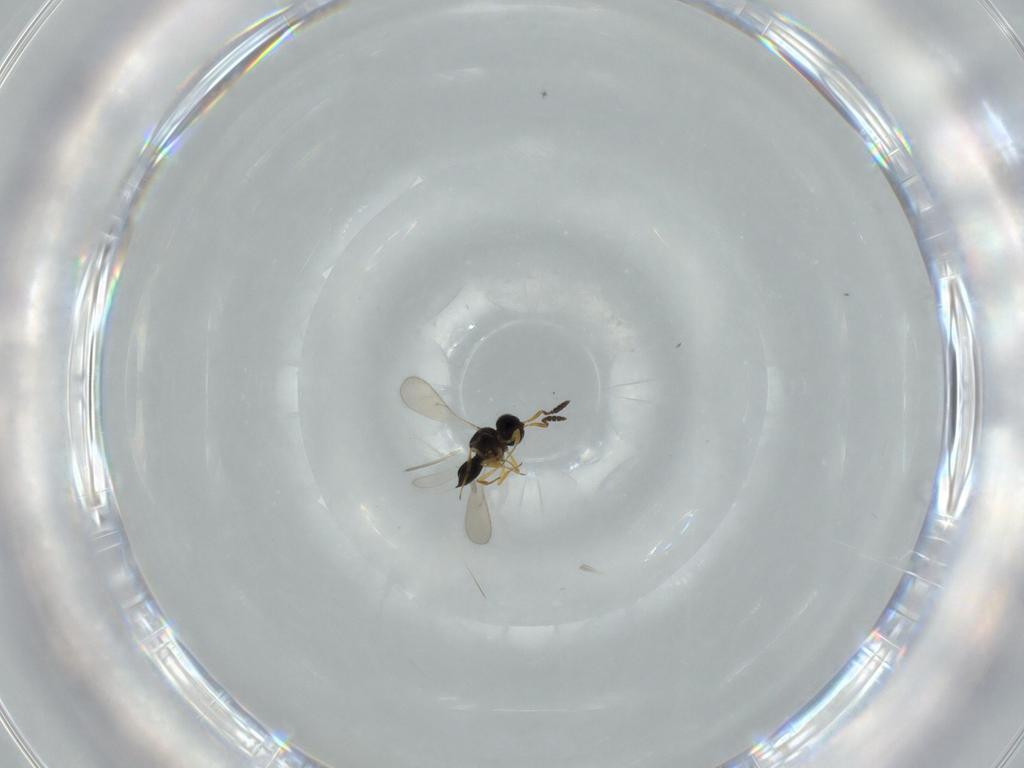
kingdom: Animalia
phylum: Arthropoda
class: Insecta
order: Hymenoptera
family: Scelionidae
